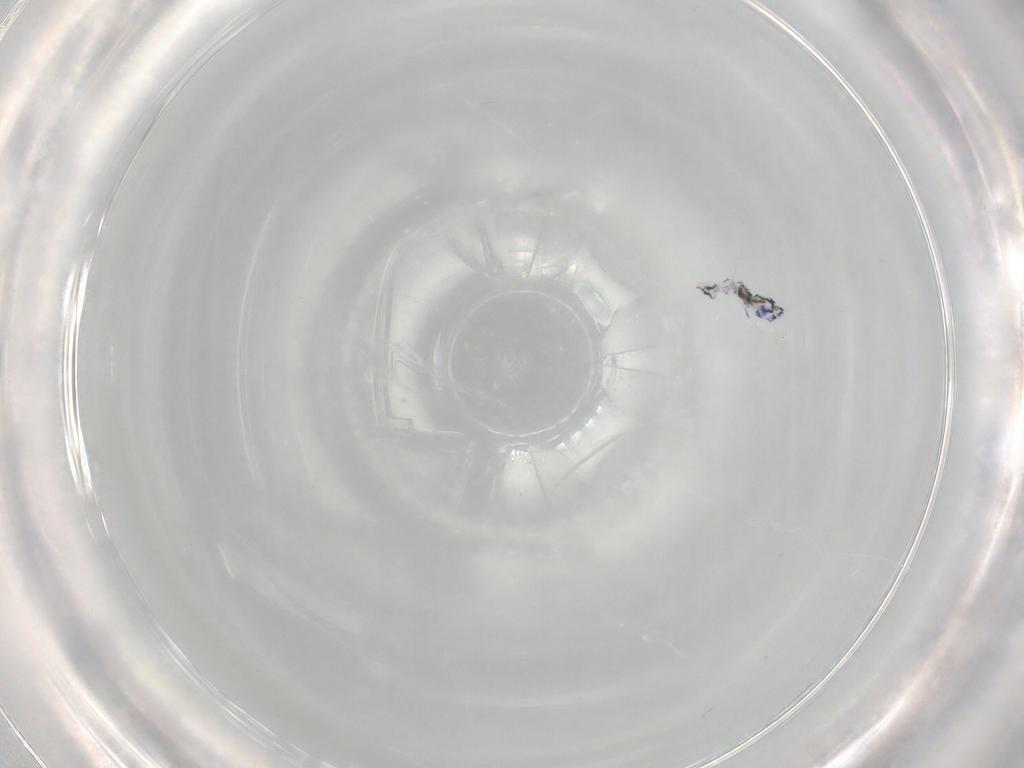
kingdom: Animalia
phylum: Arthropoda
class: Collembola
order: Entomobryomorpha
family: Entomobryidae
